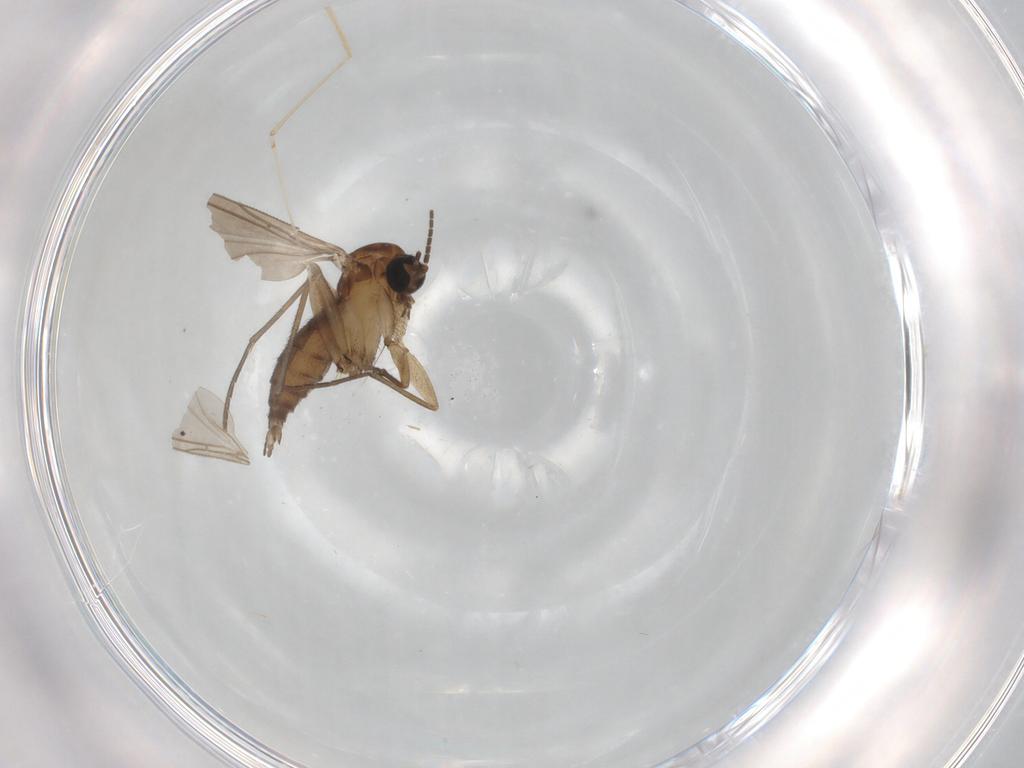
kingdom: Animalia
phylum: Arthropoda
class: Insecta
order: Diptera
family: Sciaridae
